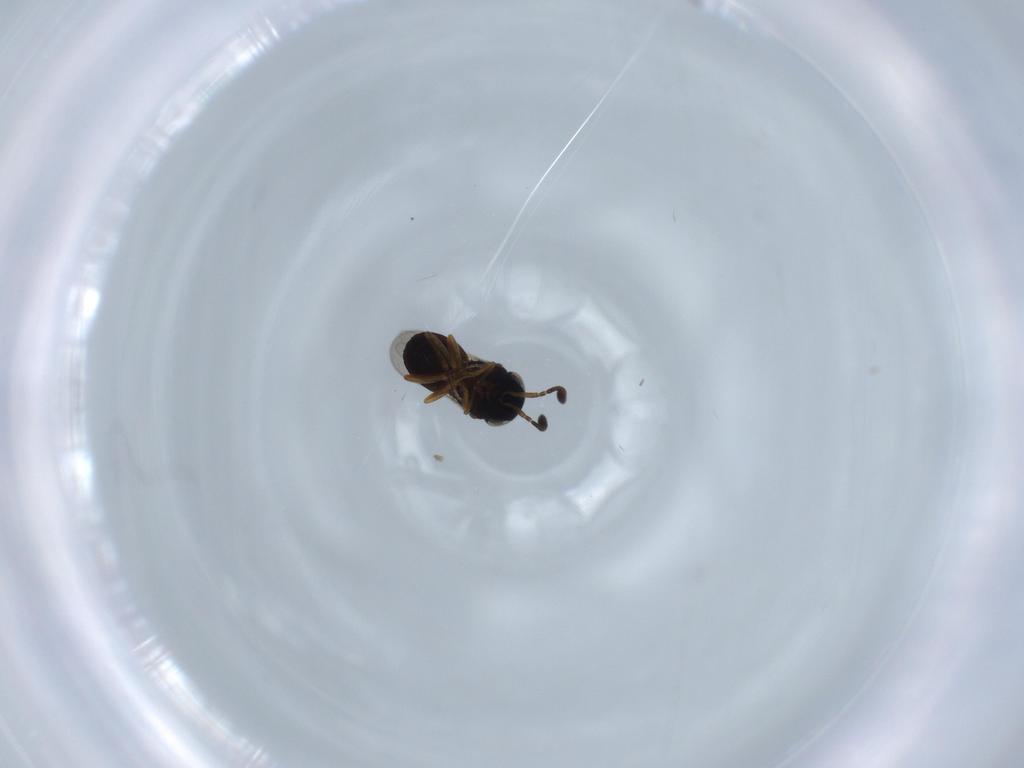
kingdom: Animalia
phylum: Arthropoda
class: Insecta
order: Hymenoptera
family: Scelionidae
